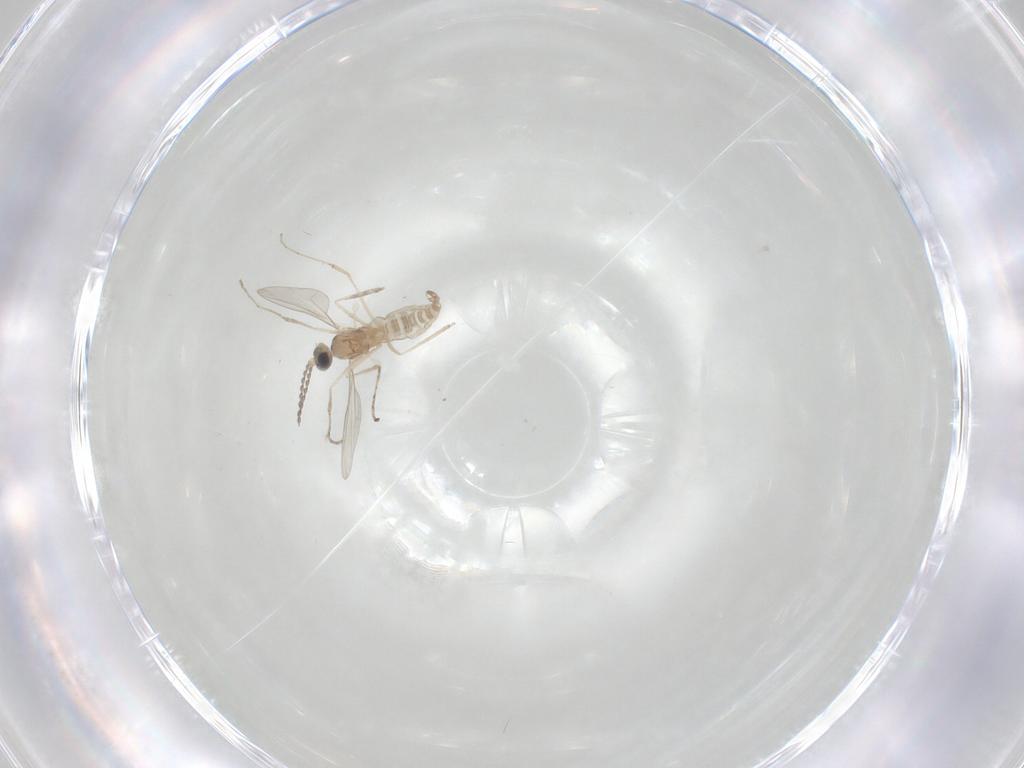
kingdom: Animalia
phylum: Arthropoda
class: Insecta
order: Diptera
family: Cecidomyiidae
